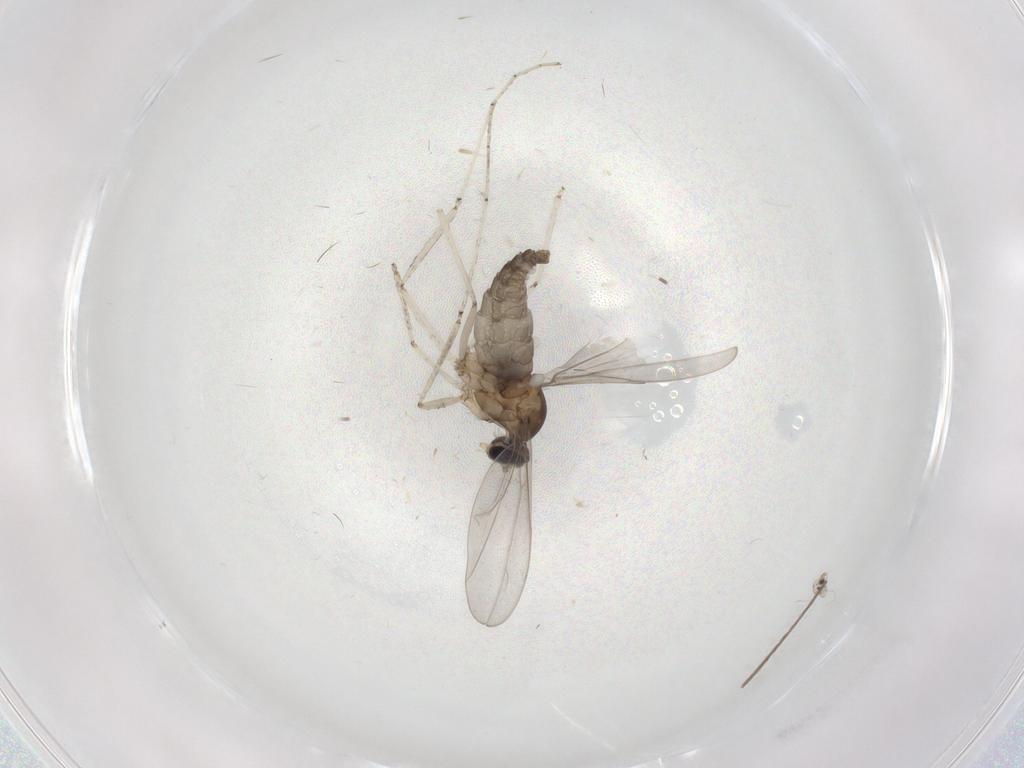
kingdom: Animalia
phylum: Arthropoda
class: Insecta
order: Diptera
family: Cecidomyiidae
